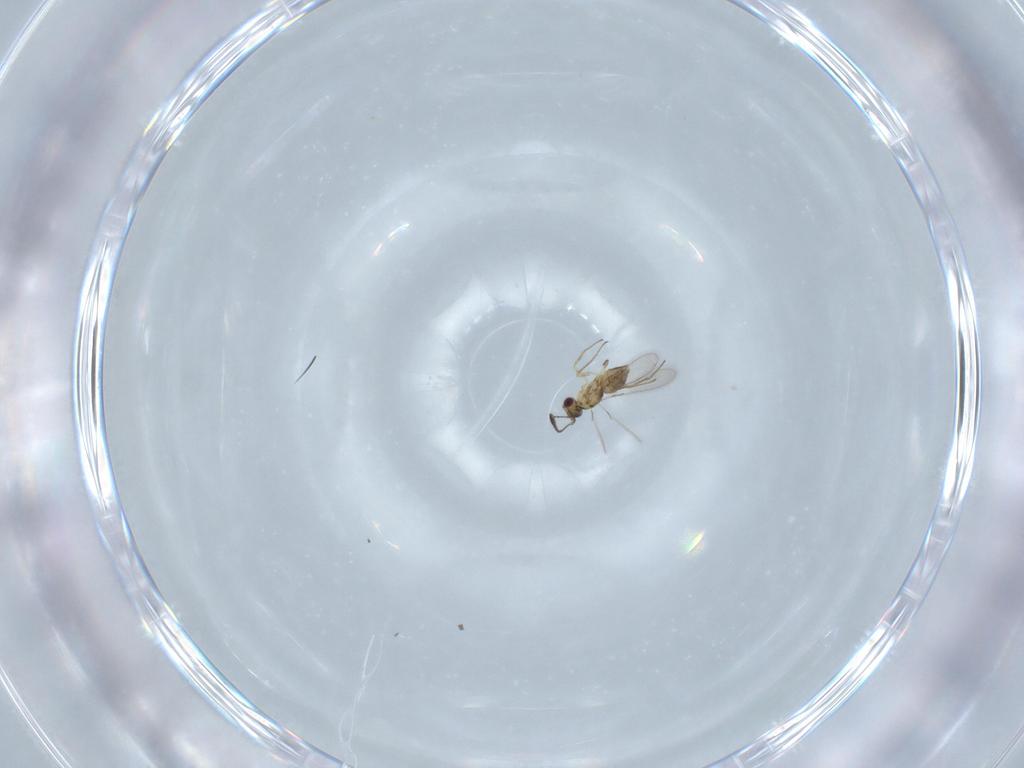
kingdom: Animalia
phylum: Arthropoda
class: Insecta
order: Hymenoptera
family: Mymaridae
